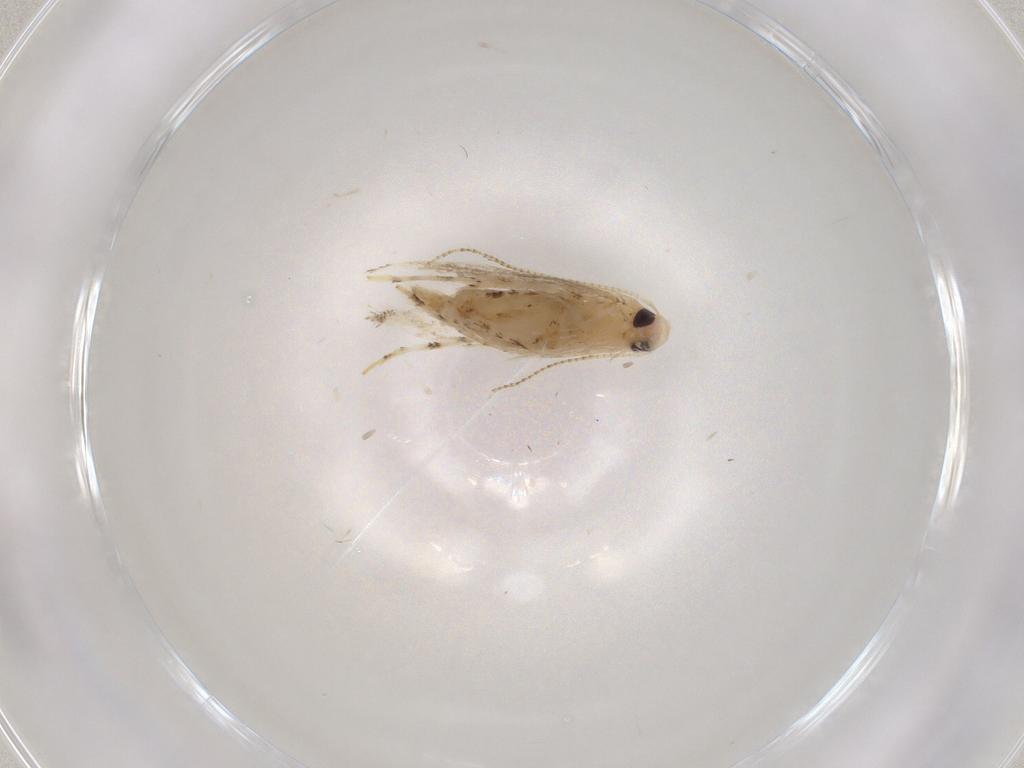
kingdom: Animalia
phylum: Arthropoda
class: Insecta
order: Lepidoptera
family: Gracillariidae
